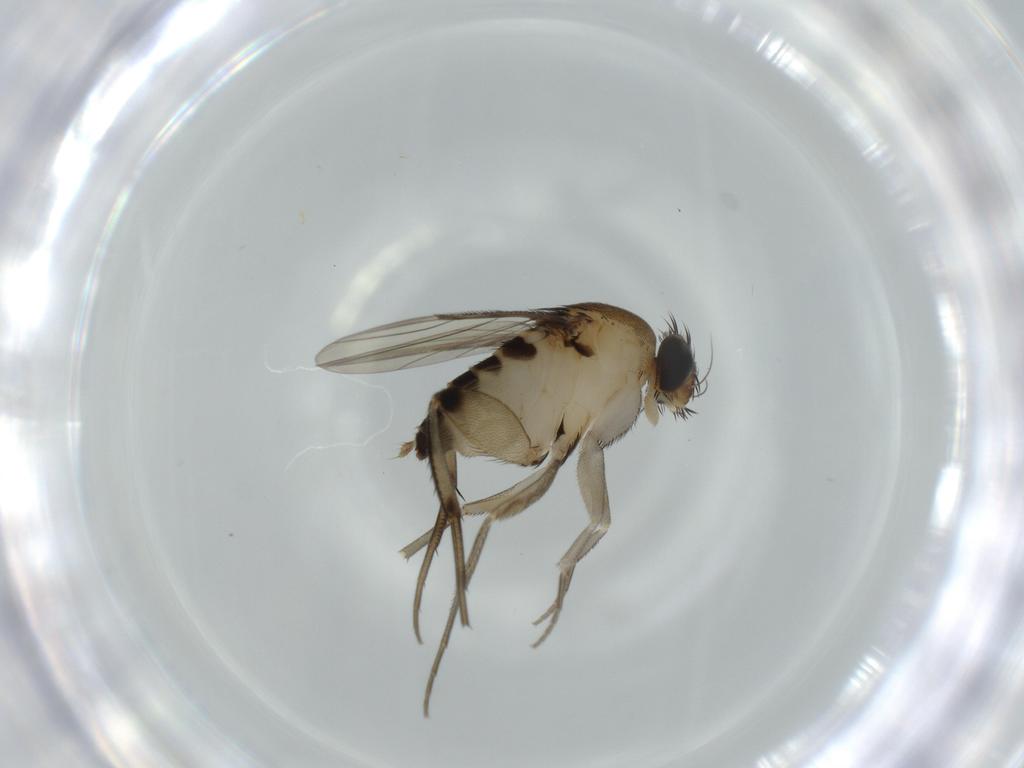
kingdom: Animalia
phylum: Arthropoda
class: Insecta
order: Diptera
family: Phoridae
